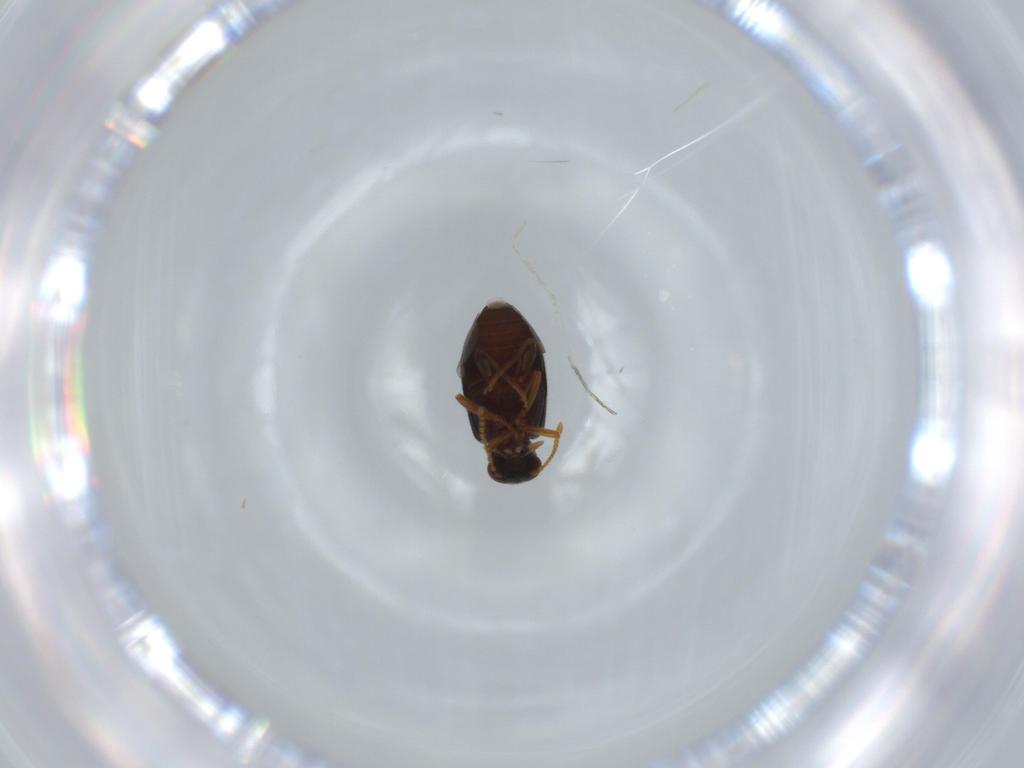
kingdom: Animalia
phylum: Arthropoda
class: Insecta
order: Coleoptera
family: Aderidae
